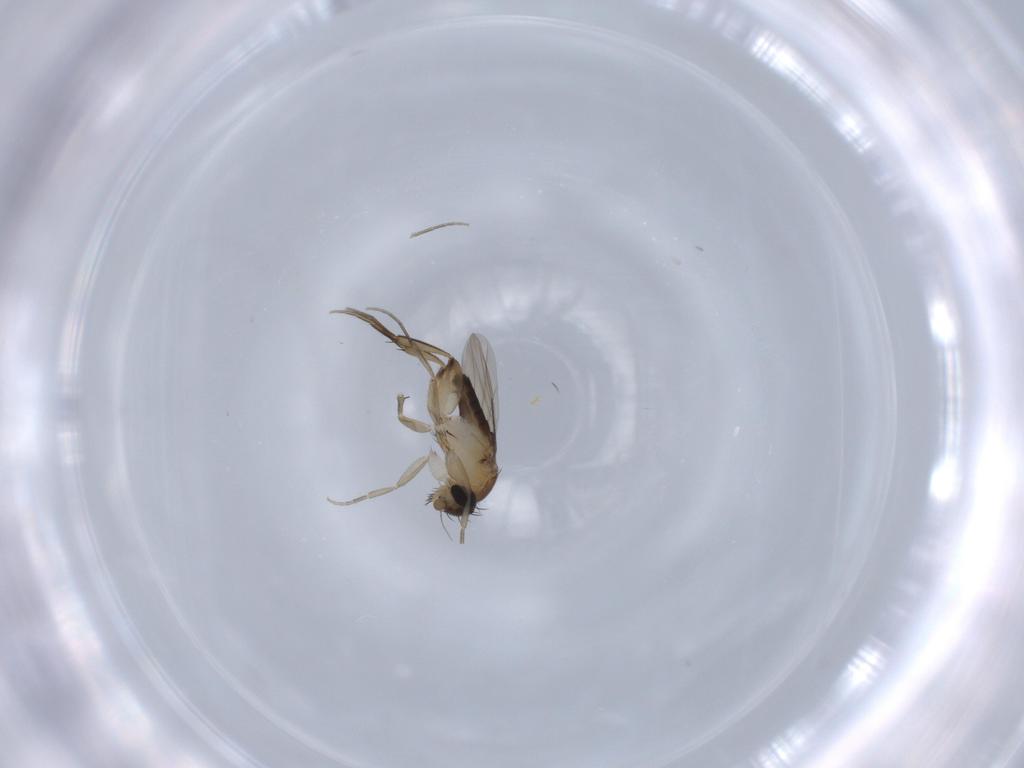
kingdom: Animalia
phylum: Arthropoda
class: Insecta
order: Diptera
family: Phoridae
